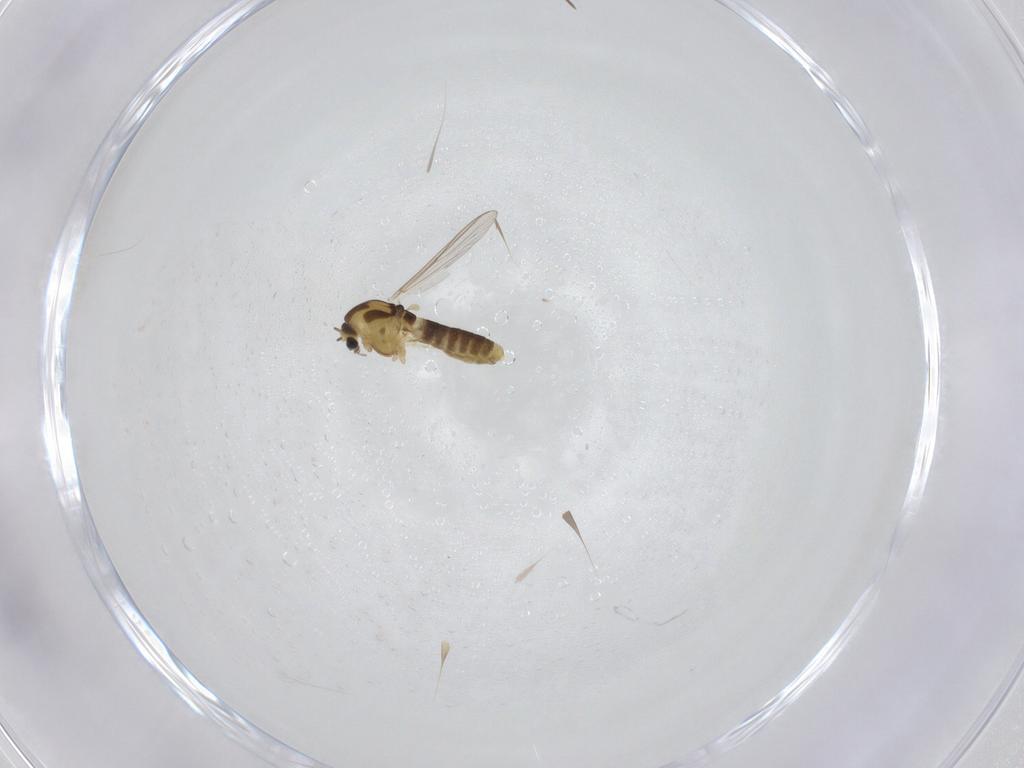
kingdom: Animalia
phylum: Arthropoda
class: Insecta
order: Diptera
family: Chironomidae
